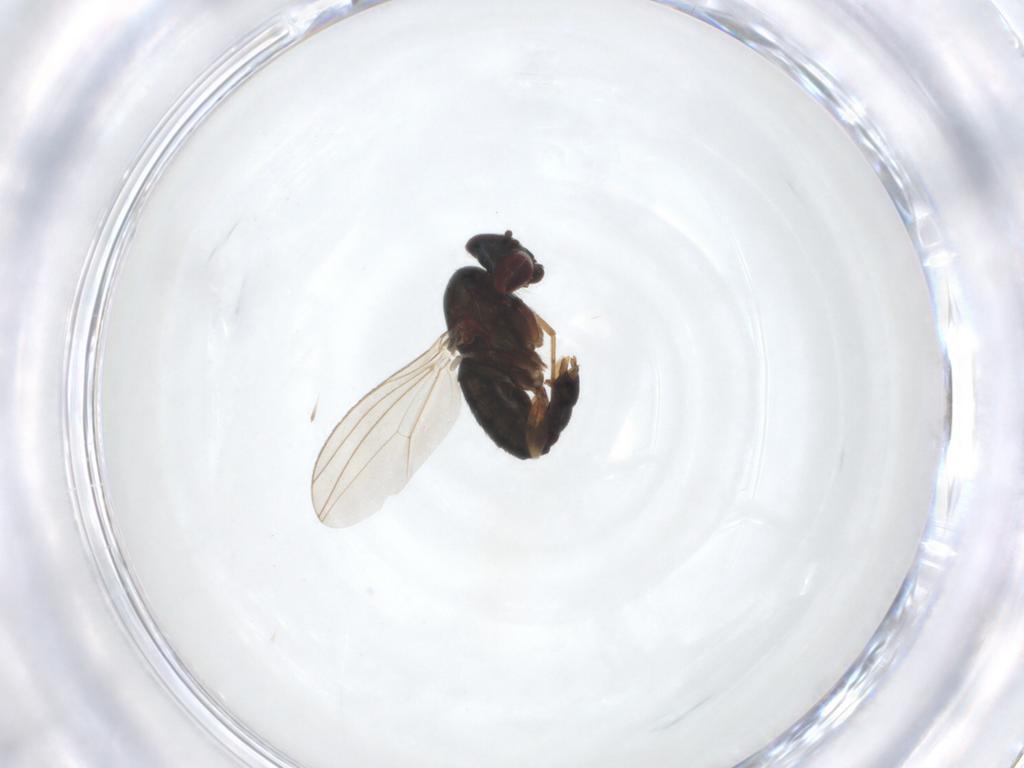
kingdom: Animalia
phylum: Arthropoda
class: Insecta
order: Diptera
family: Dolichopodidae
